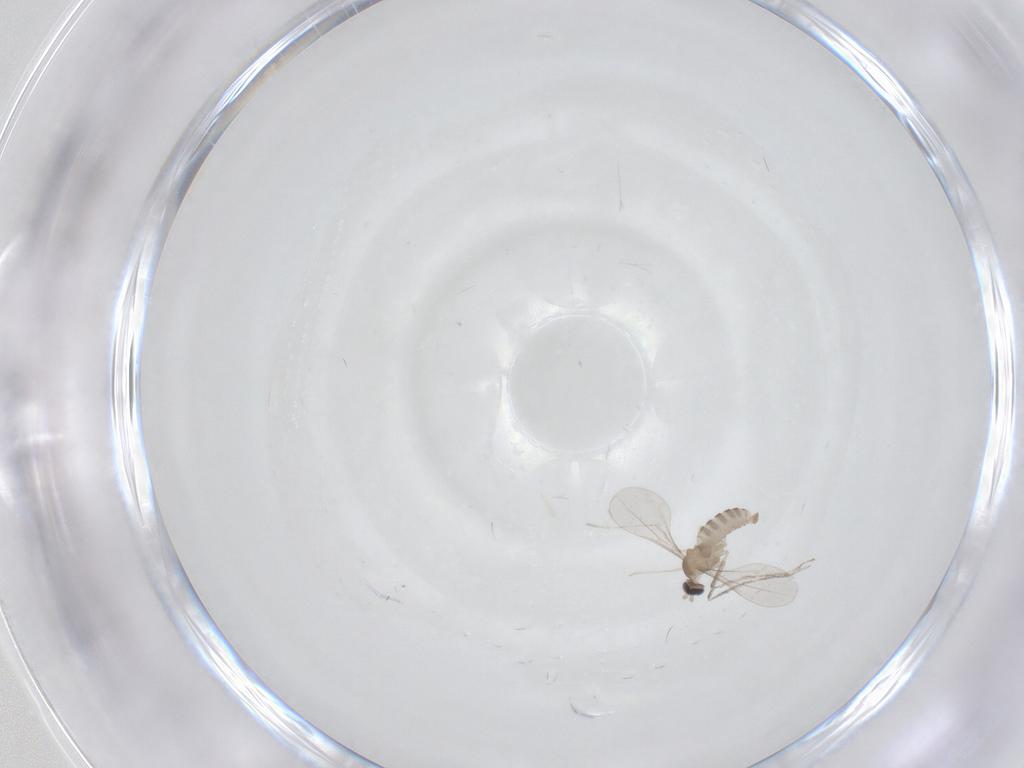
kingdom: Animalia
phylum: Arthropoda
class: Insecta
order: Diptera
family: Cecidomyiidae
